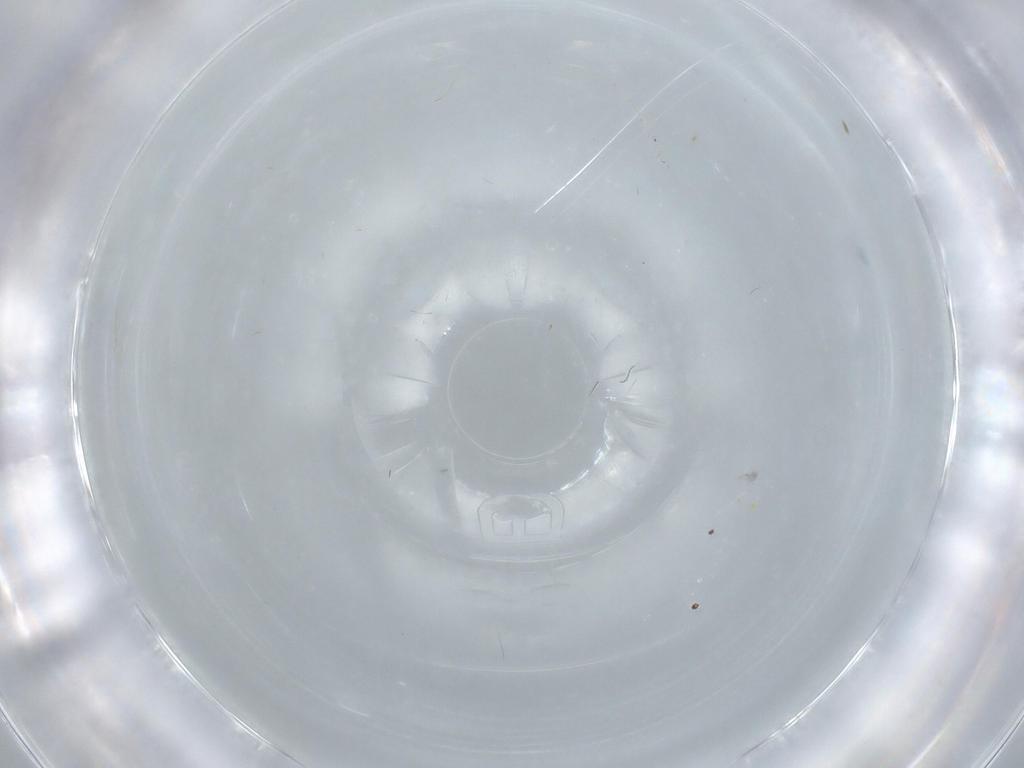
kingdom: Animalia
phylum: Arthropoda
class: Insecta
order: Diptera
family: Cecidomyiidae
